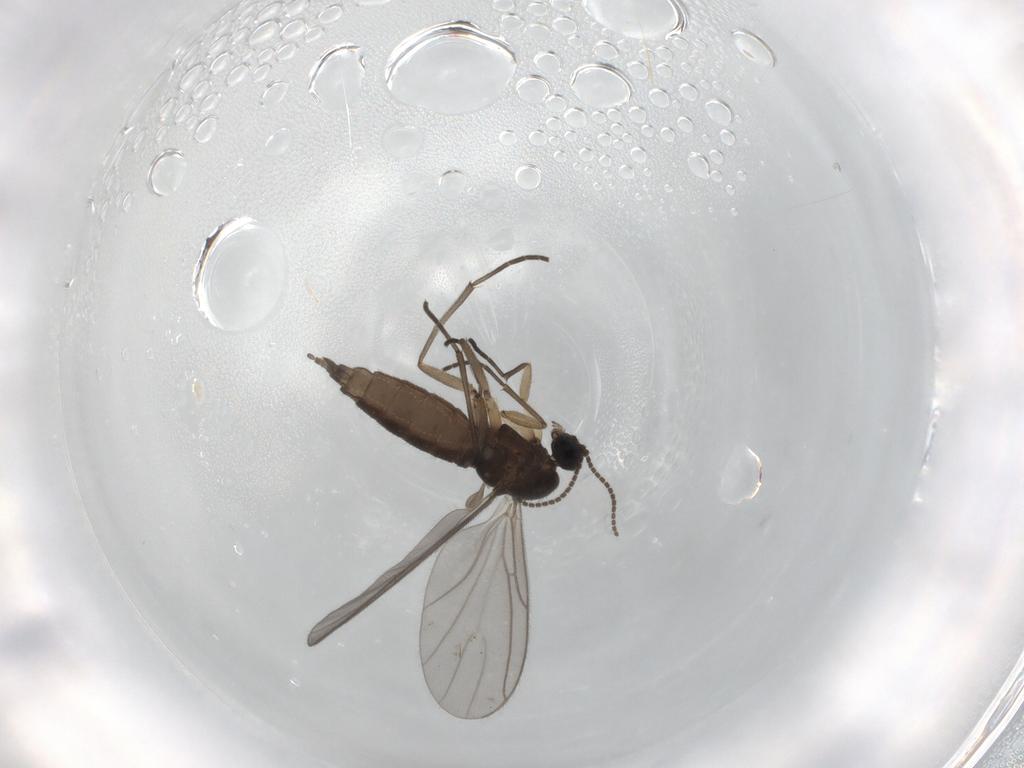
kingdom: Animalia
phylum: Arthropoda
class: Insecta
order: Diptera
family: Sciaridae
